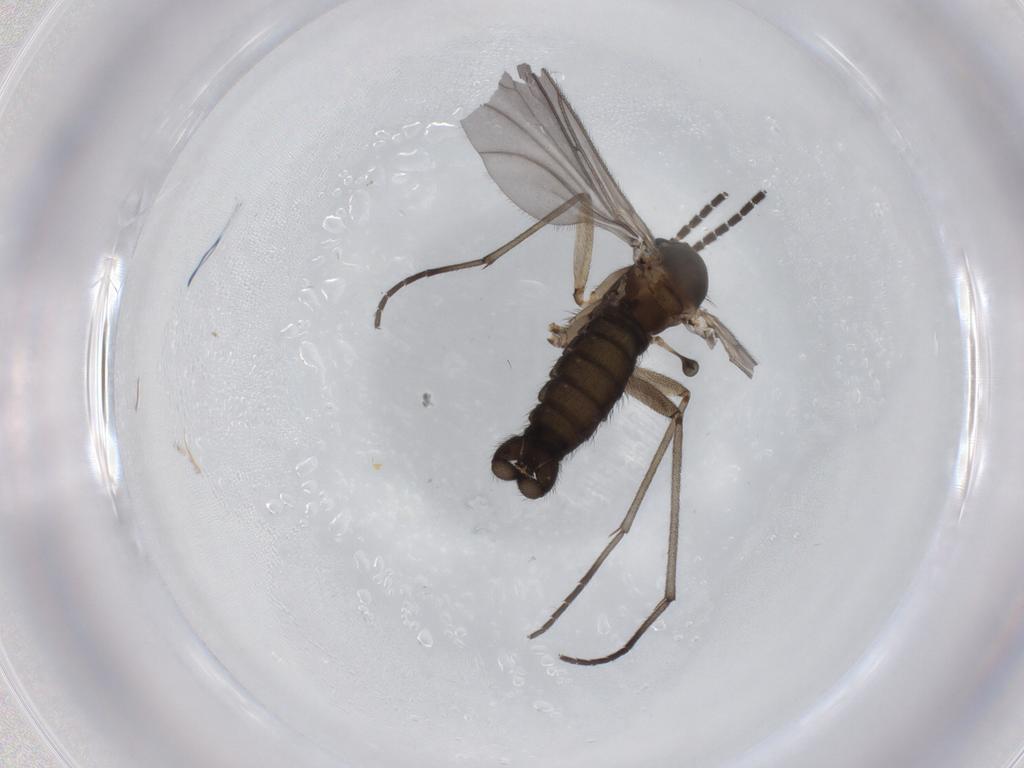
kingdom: Animalia
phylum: Arthropoda
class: Insecta
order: Diptera
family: Sciaridae
